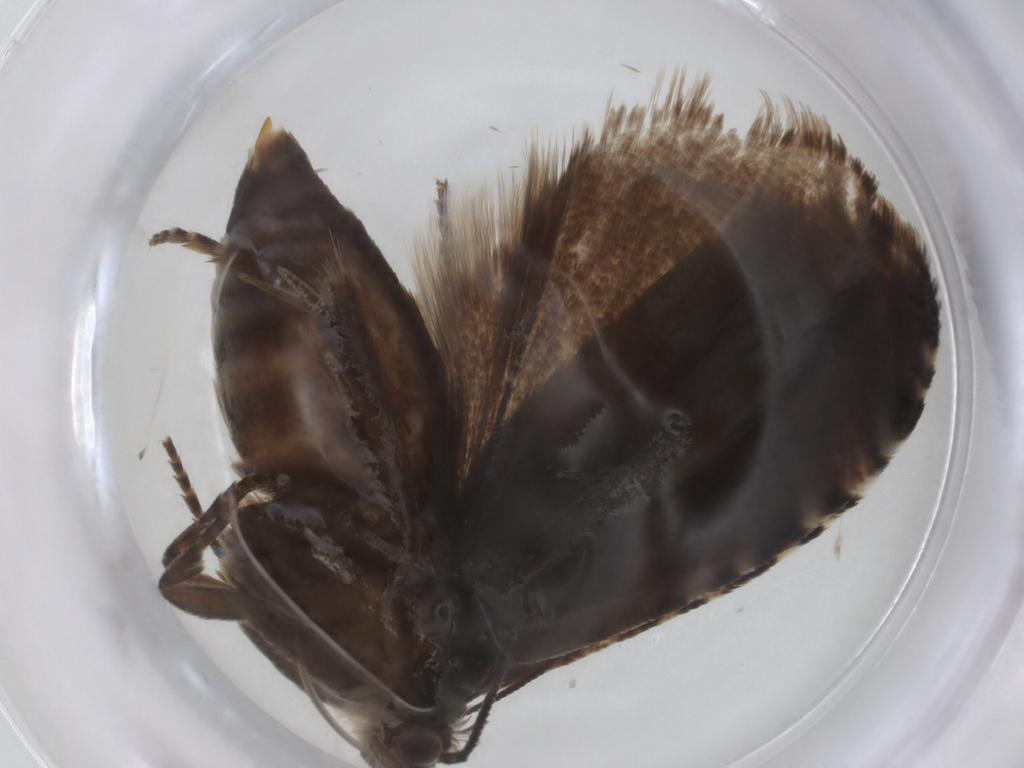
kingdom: Animalia
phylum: Arthropoda
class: Insecta
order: Lepidoptera
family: Tortricidae
